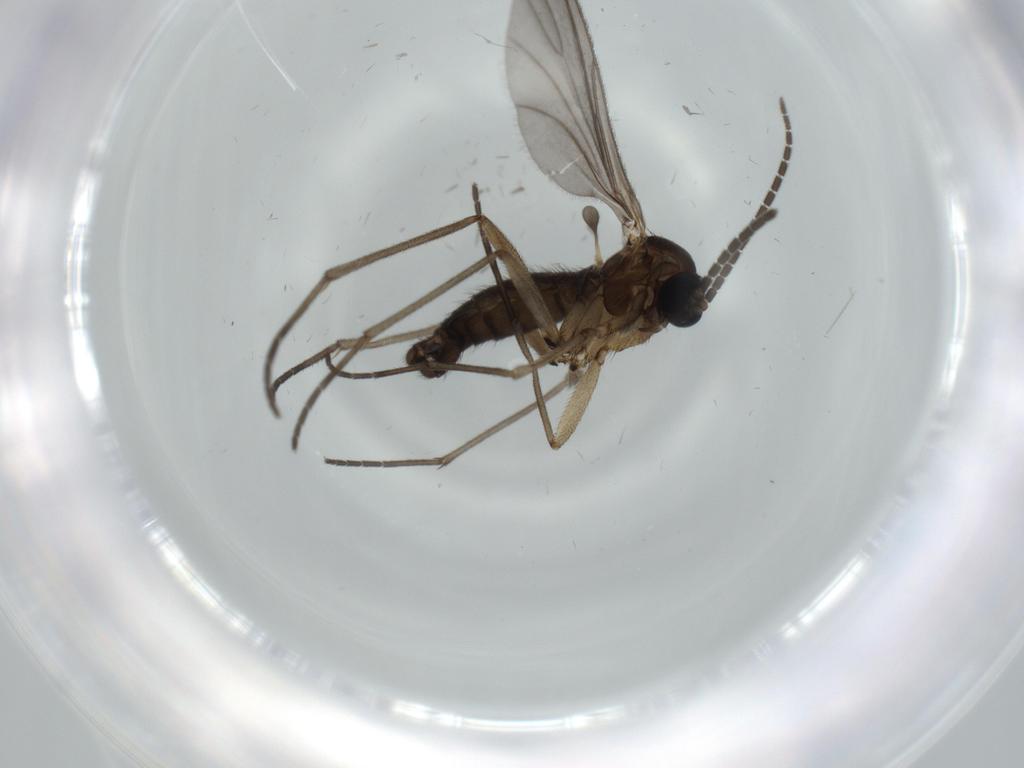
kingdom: Animalia
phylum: Arthropoda
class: Insecta
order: Diptera
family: Sciaridae
